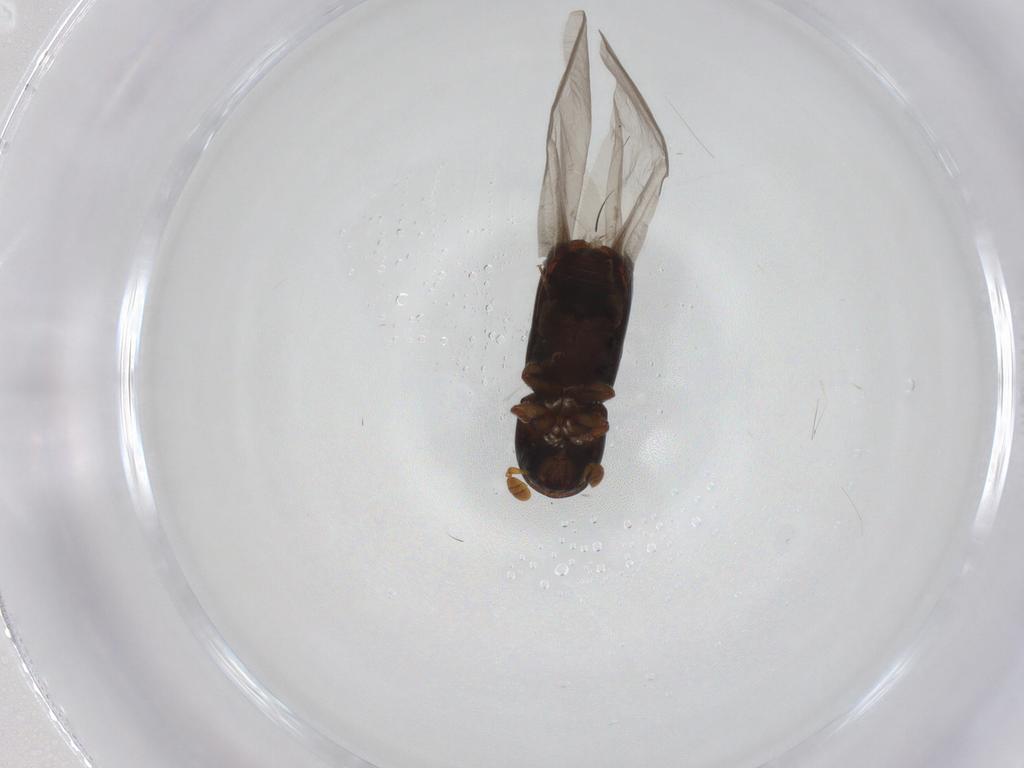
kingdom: Animalia
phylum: Arthropoda
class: Insecta
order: Coleoptera
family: Curculionidae
